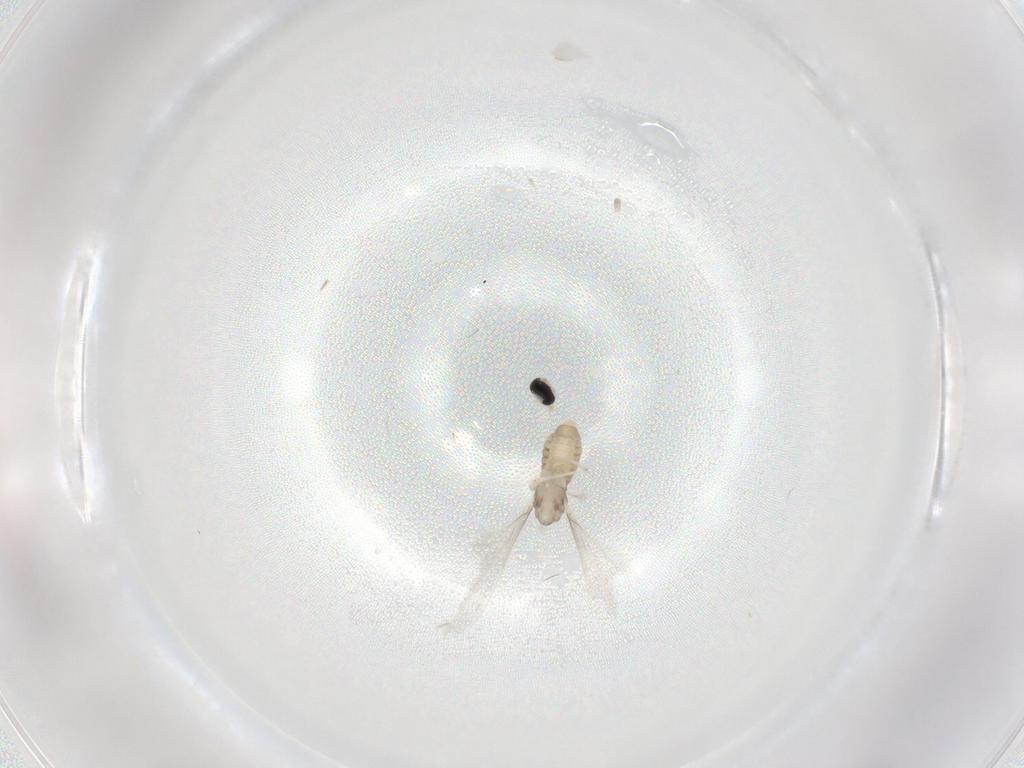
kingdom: Animalia
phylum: Arthropoda
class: Insecta
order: Diptera
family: Cecidomyiidae
